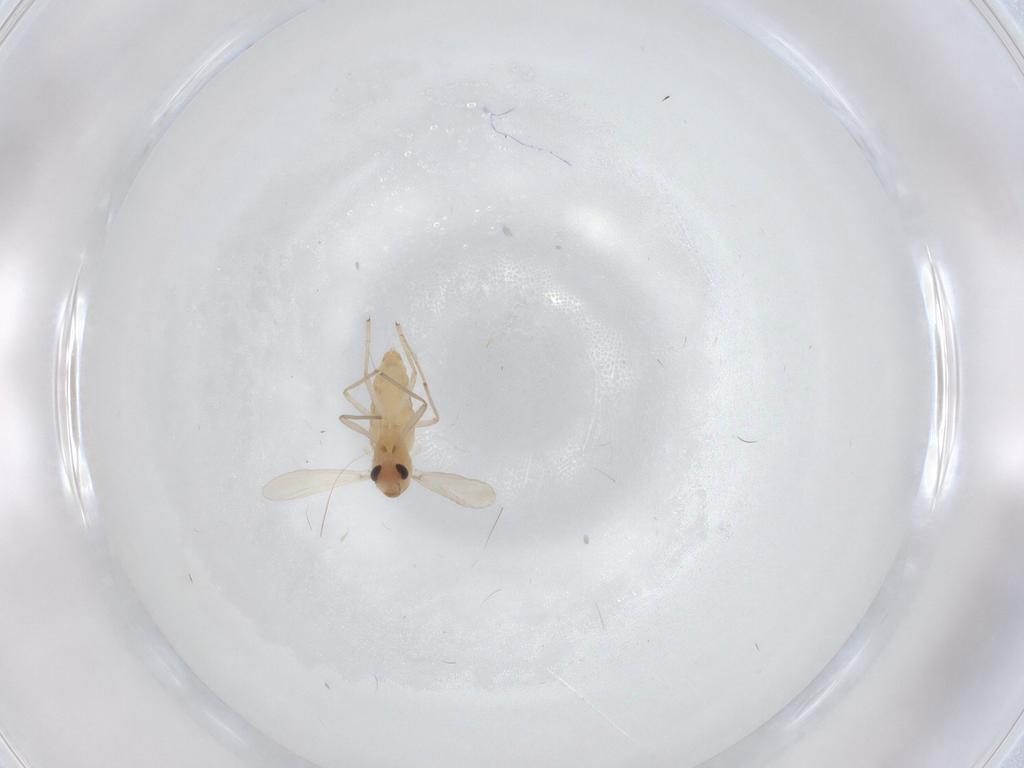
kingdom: Animalia
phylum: Arthropoda
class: Insecta
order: Diptera
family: Chironomidae
